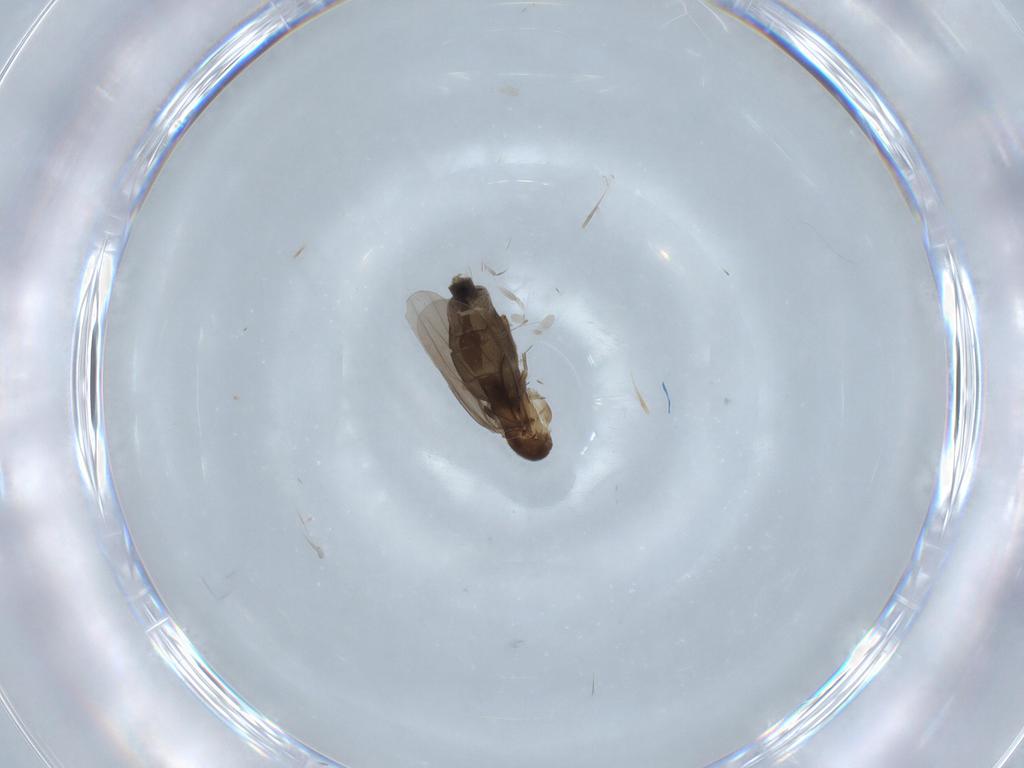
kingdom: Animalia
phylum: Arthropoda
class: Insecta
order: Diptera
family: Phoridae
